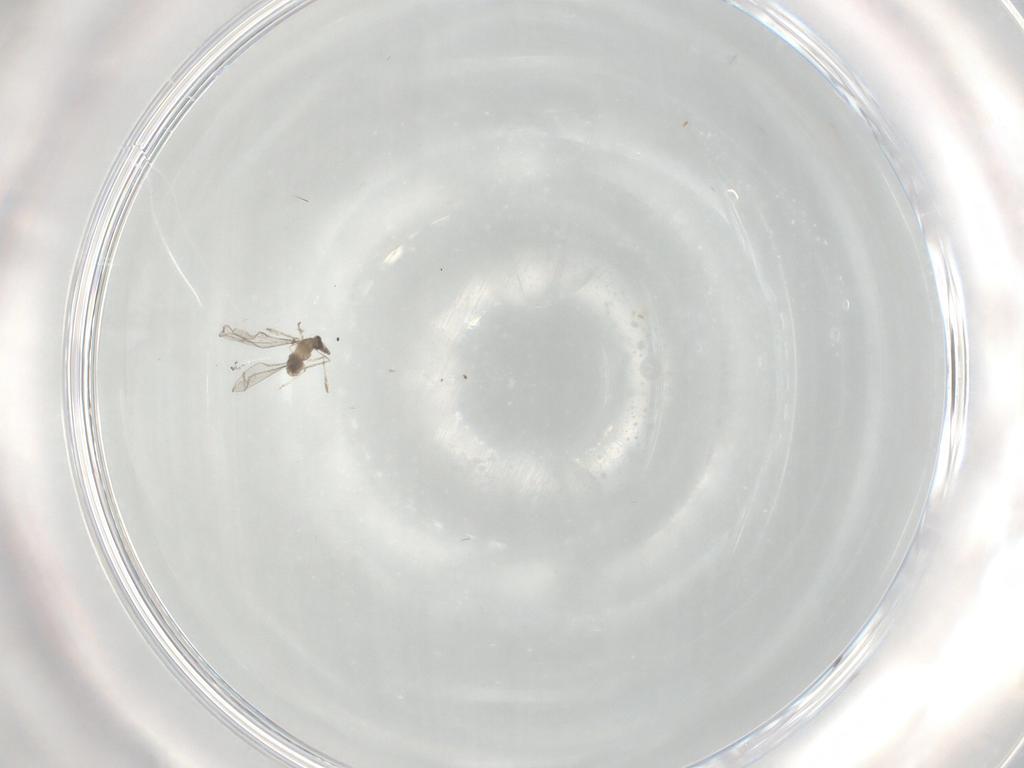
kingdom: Animalia
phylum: Arthropoda
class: Insecta
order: Diptera
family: Cecidomyiidae
